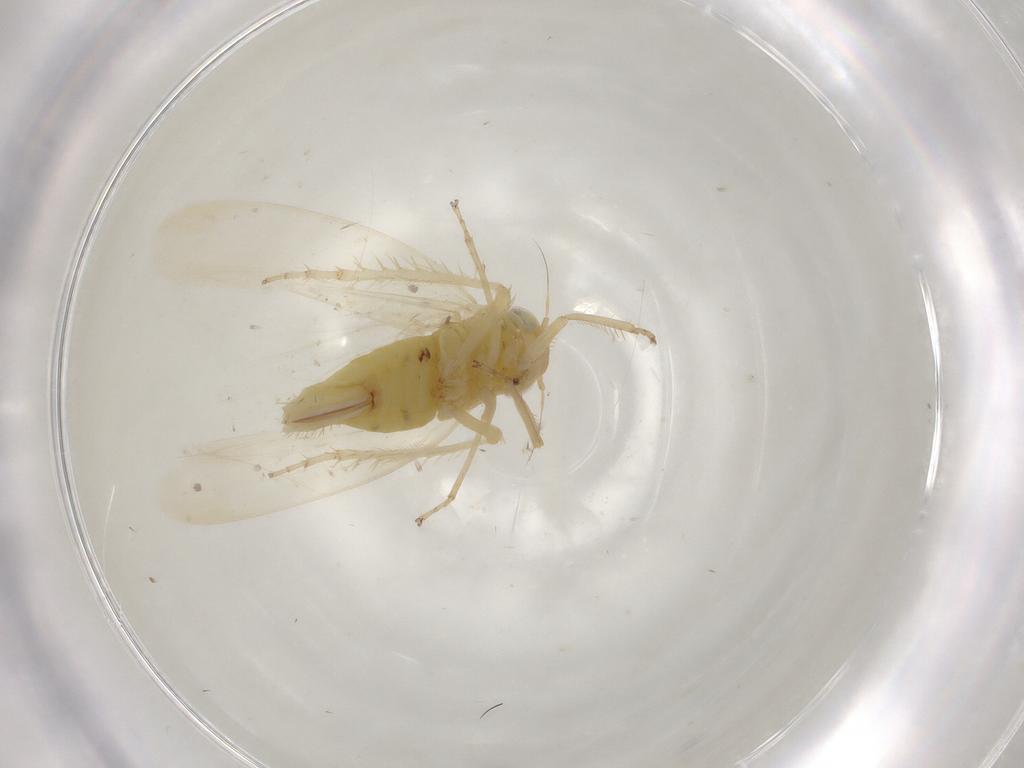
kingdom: Animalia
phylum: Arthropoda
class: Insecta
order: Hemiptera
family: Cicadellidae
